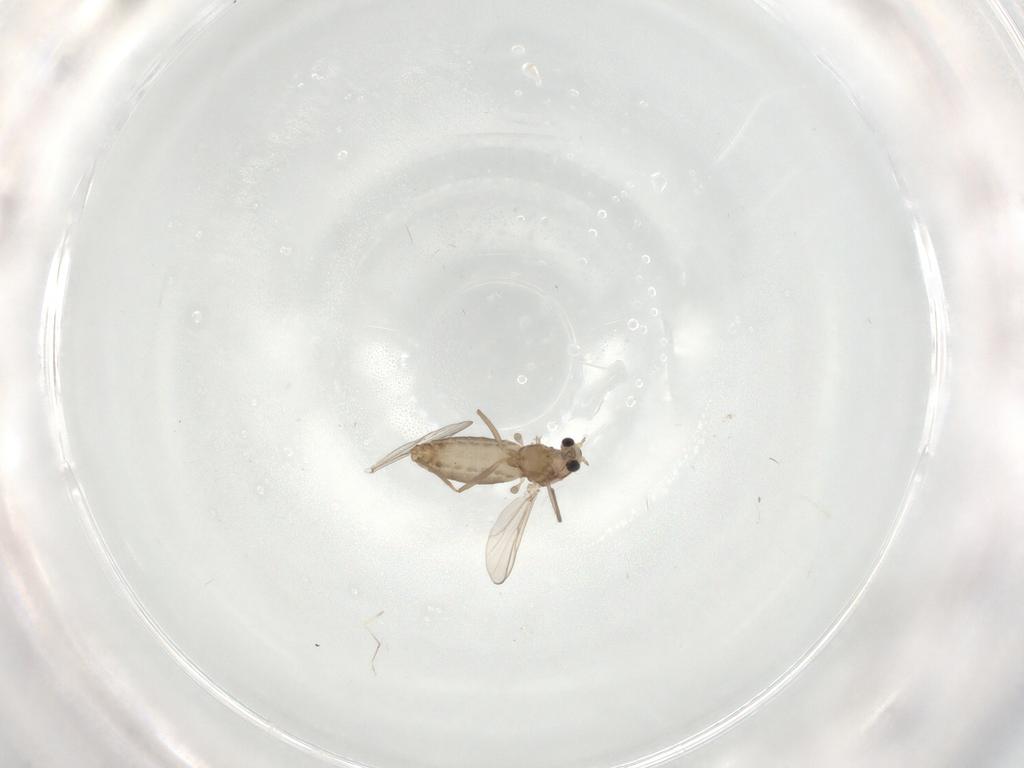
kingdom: Animalia
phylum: Arthropoda
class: Insecta
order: Diptera
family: Chironomidae
